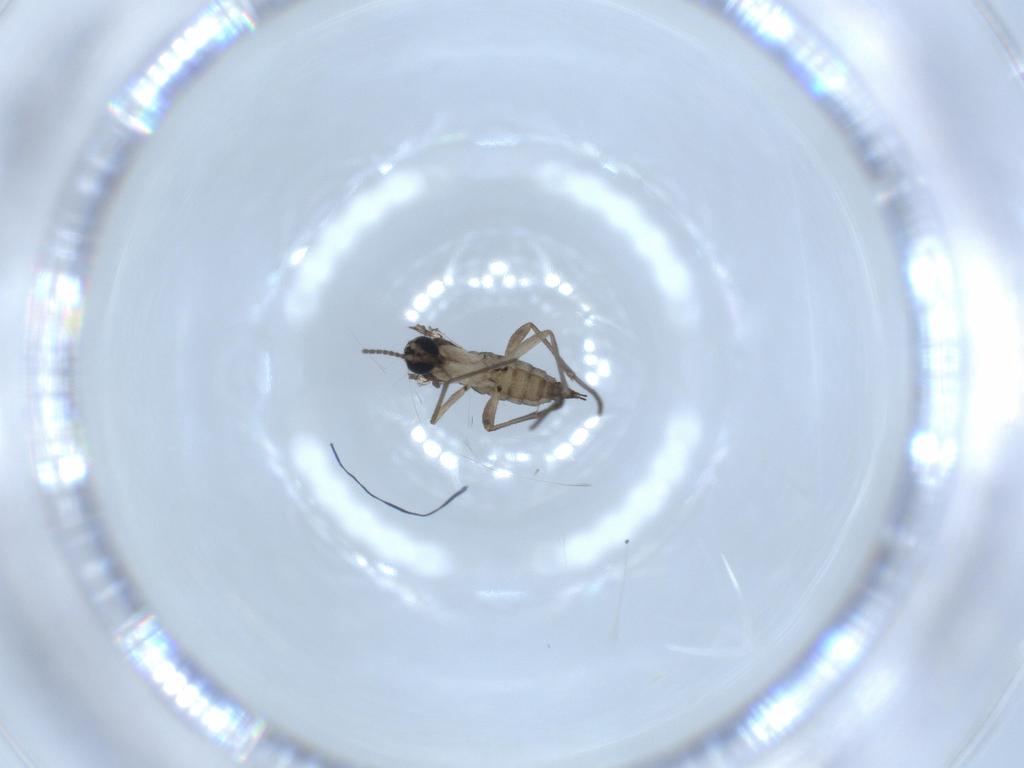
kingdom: Animalia
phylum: Arthropoda
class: Insecta
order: Diptera
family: Sciaridae
